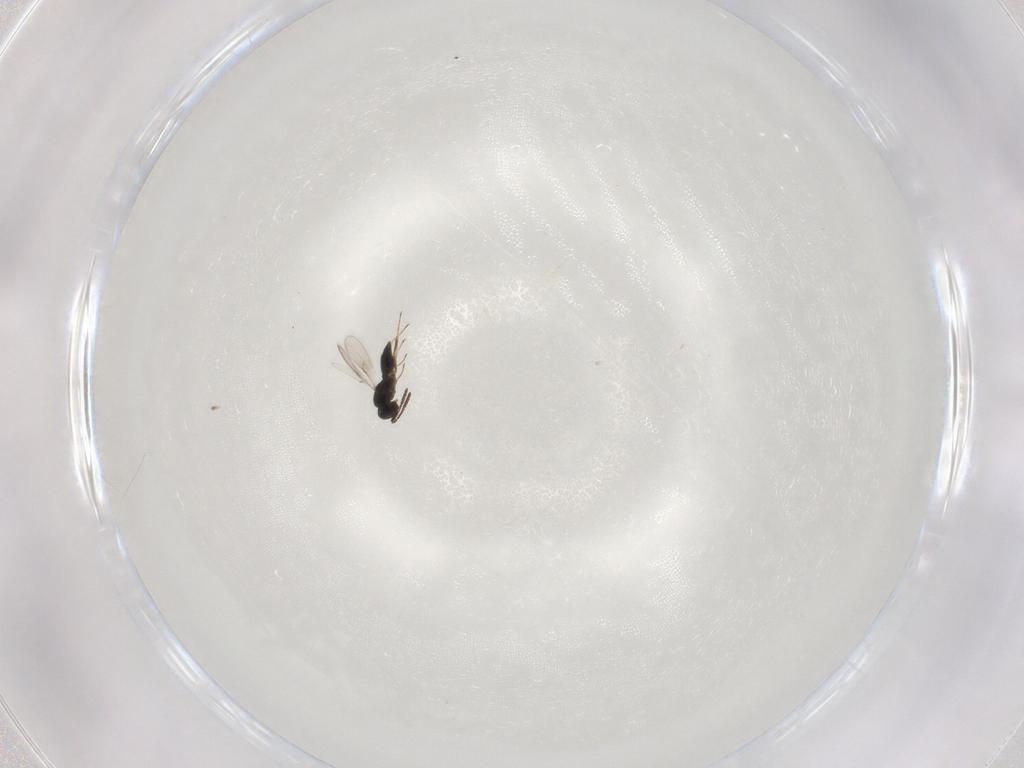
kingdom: Animalia
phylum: Arthropoda
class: Insecta
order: Hymenoptera
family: Scelionidae
